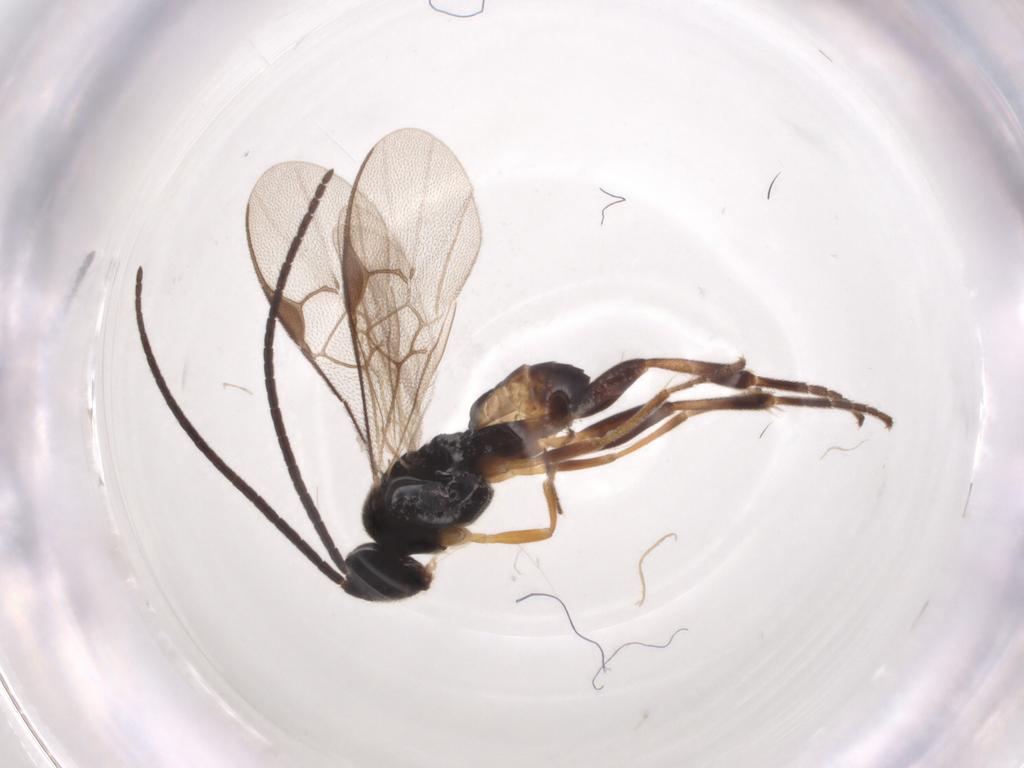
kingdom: Animalia
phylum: Arthropoda
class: Insecta
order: Hymenoptera
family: Braconidae
